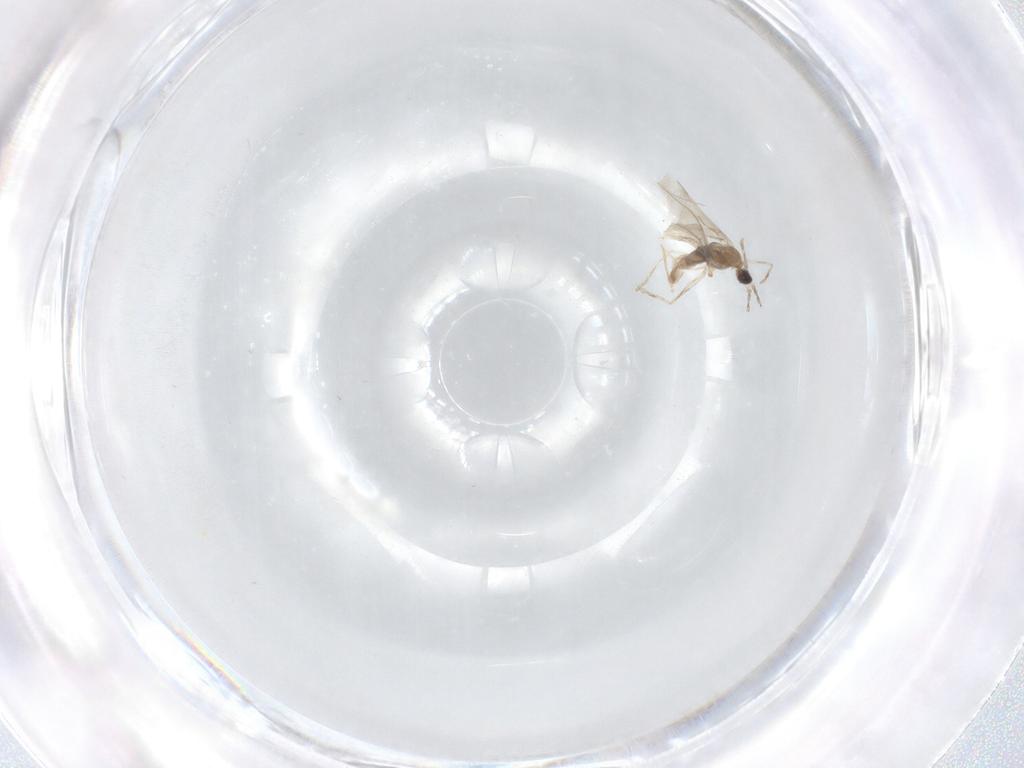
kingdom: Animalia
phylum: Arthropoda
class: Insecta
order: Diptera
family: Cecidomyiidae
